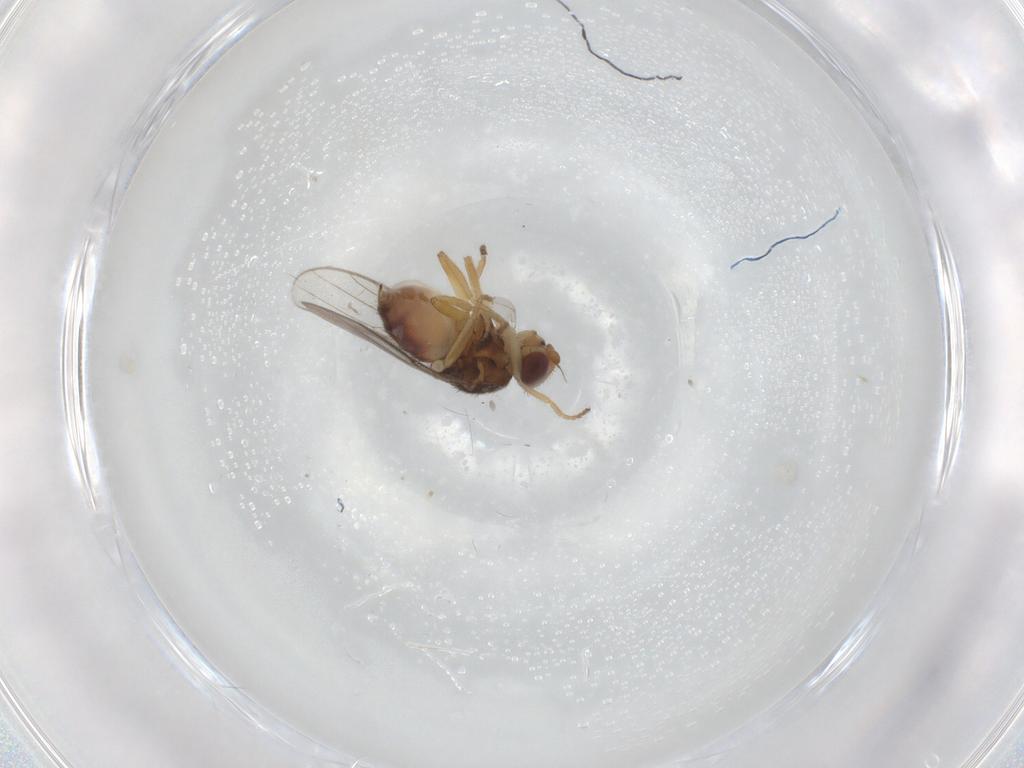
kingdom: Animalia
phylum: Arthropoda
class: Insecta
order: Diptera
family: Chloropidae
